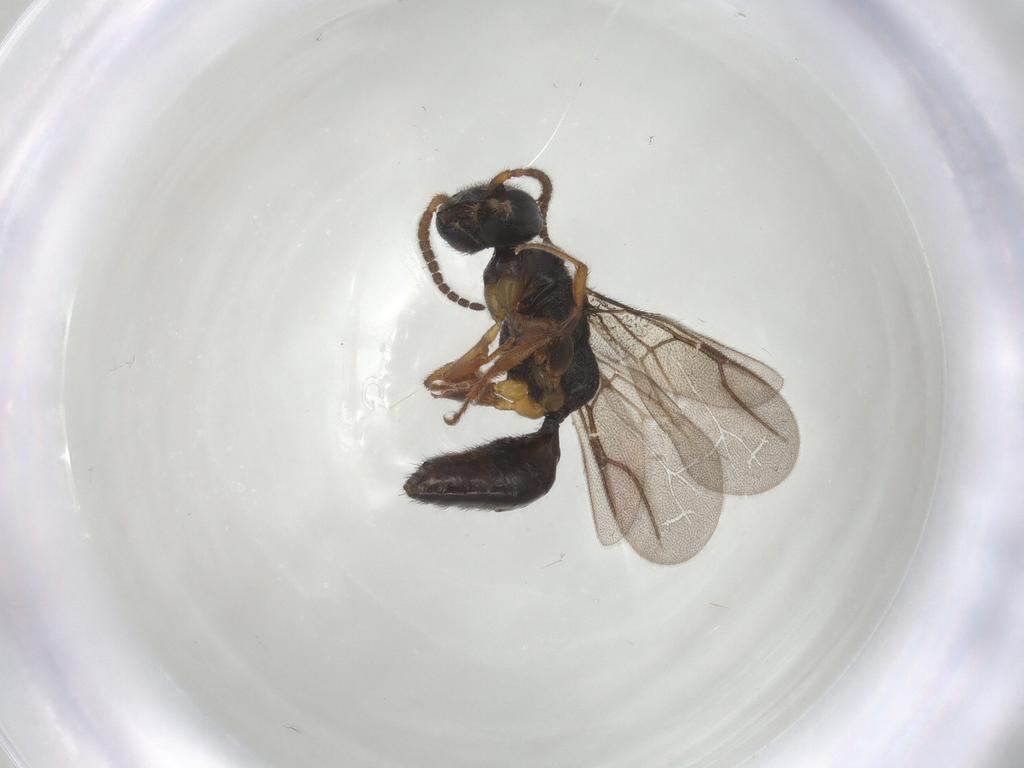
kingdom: Animalia
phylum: Arthropoda
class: Insecta
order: Hymenoptera
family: Bethylidae
